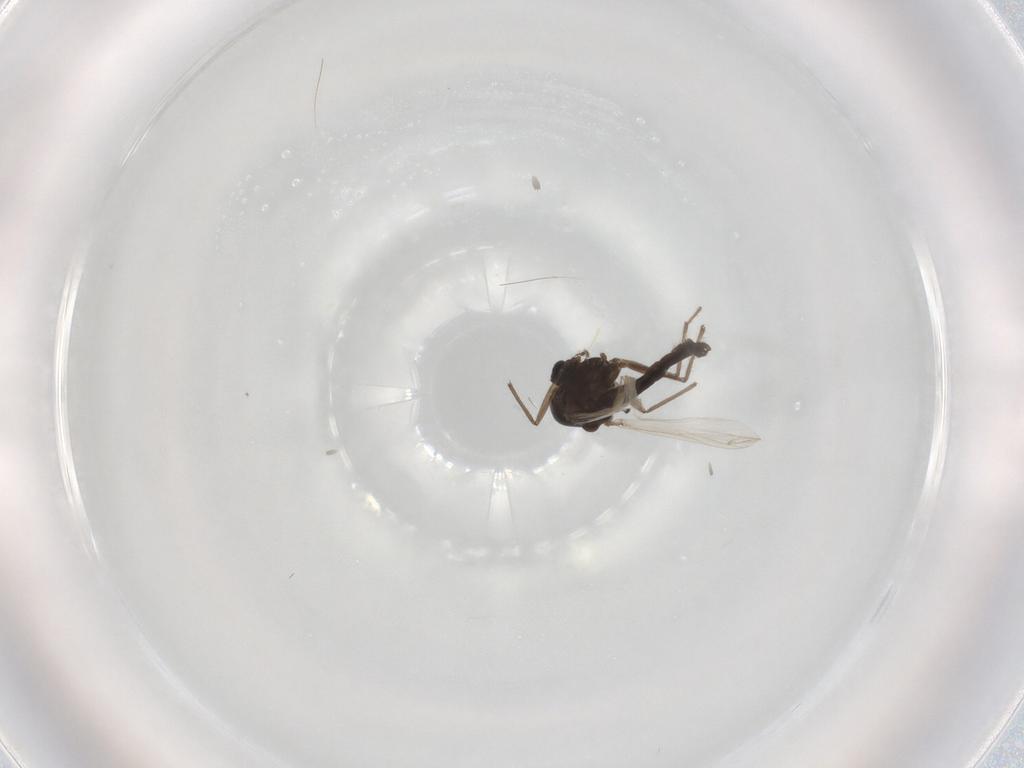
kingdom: Animalia
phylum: Arthropoda
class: Insecta
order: Diptera
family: Chironomidae
